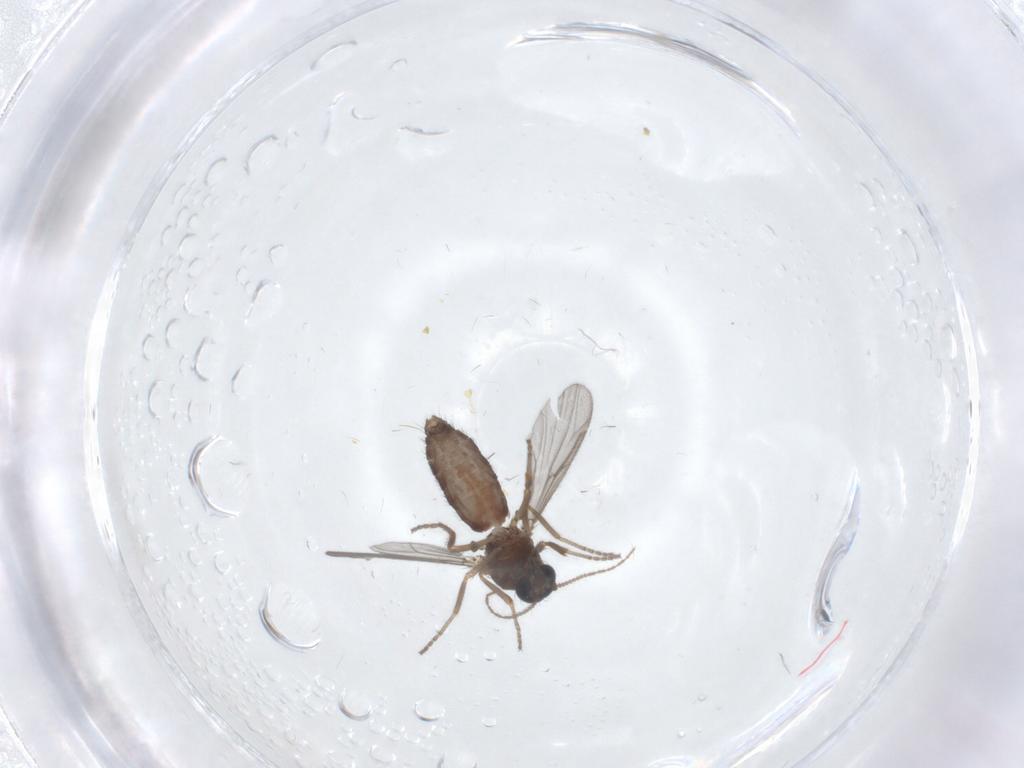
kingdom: Animalia
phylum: Arthropoda
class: Insecta
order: Diptera
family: Ceratopogonidae
